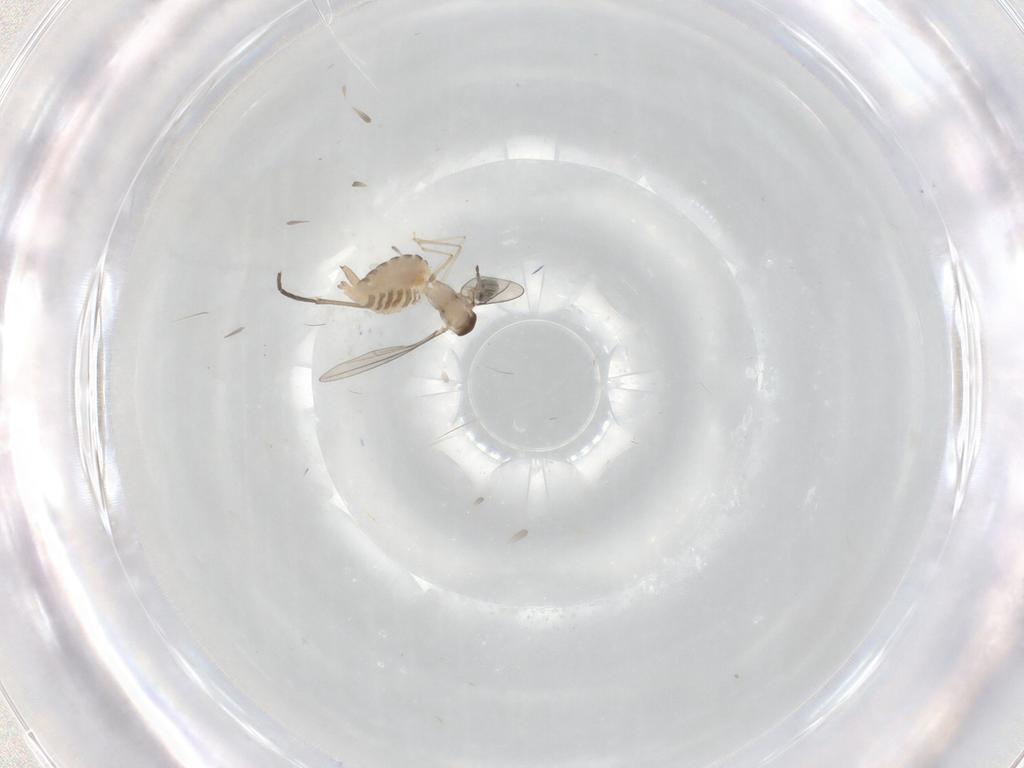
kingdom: Animalia
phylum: Arthropoda
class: Insecta
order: Diptera
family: Cecidomyiidae
